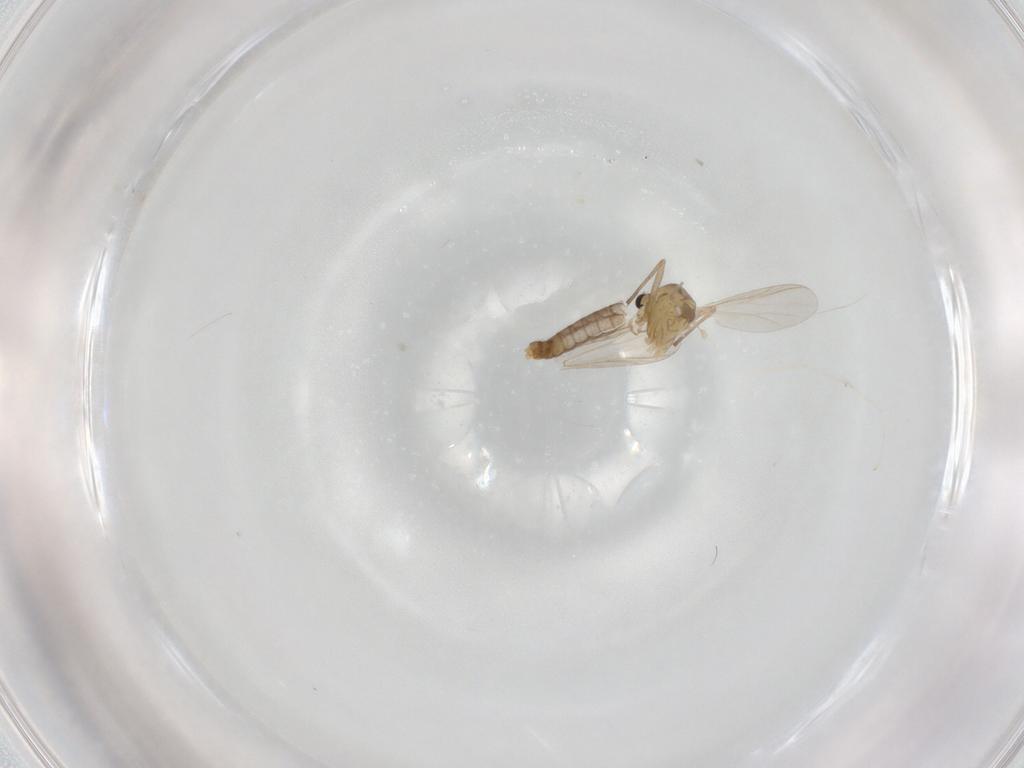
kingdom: Animalia
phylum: Arthropoda
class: Insecta
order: Diptera
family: Chironomidae
